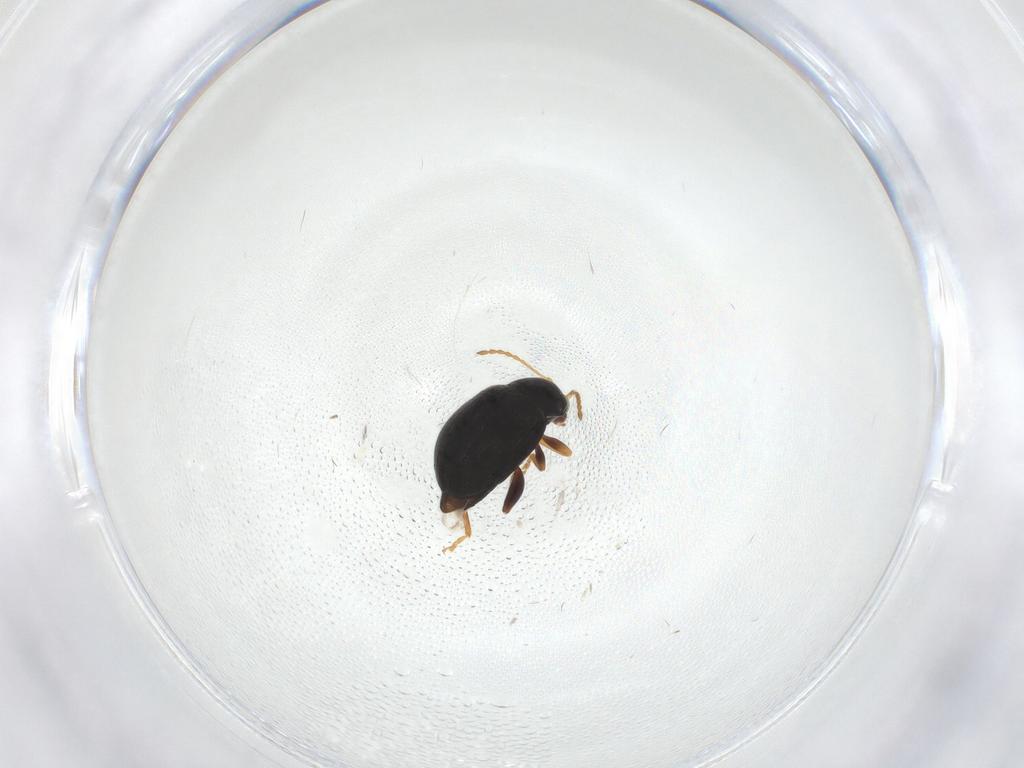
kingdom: Animalia
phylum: Arthropoda
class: Insecta
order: Coleoptera
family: Chrysomelidae
